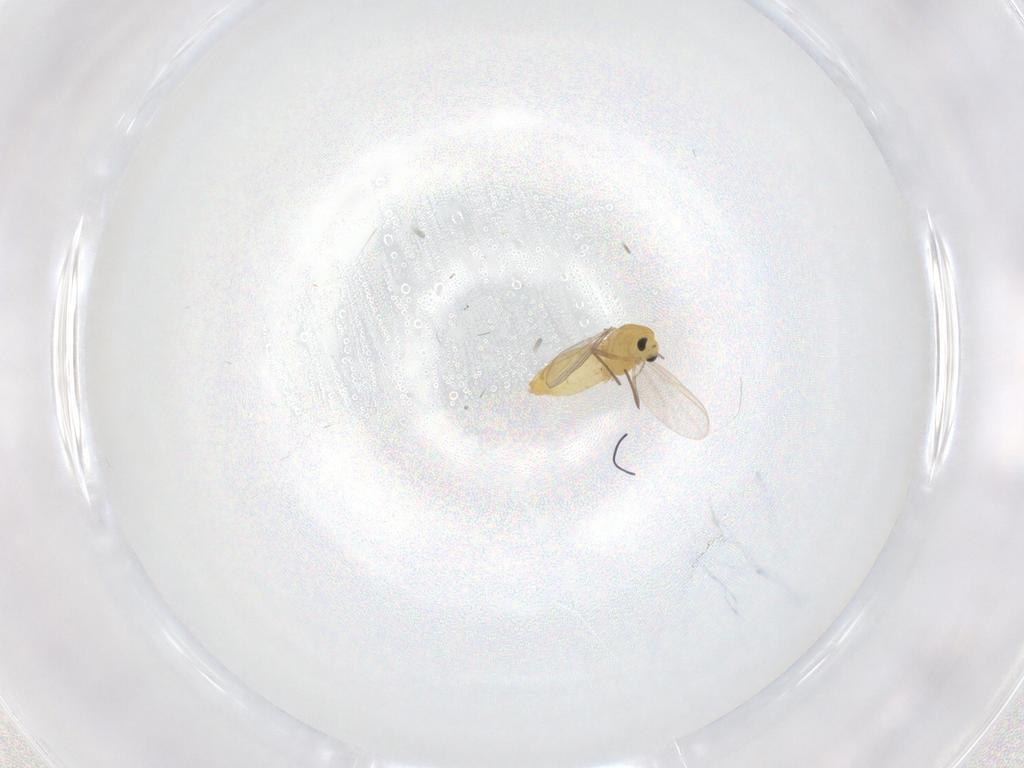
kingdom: Animalia
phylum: Arthropoda
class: Insecta
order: Diptera
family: Chironomidae
